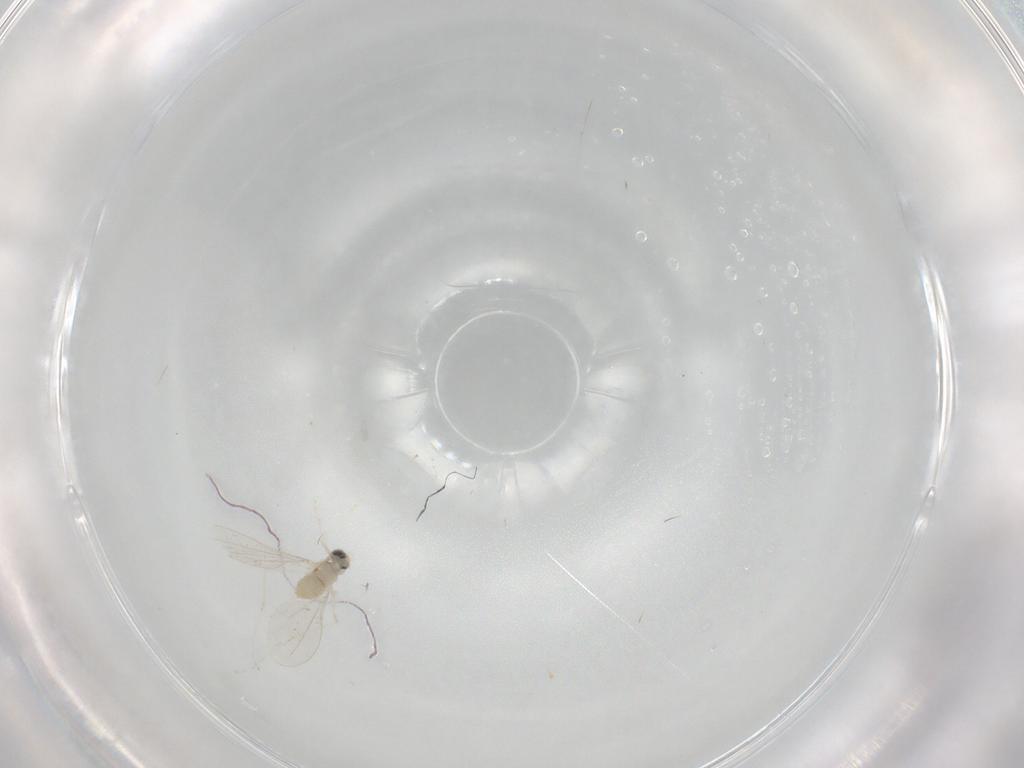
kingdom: Animalia
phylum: Arthropoda
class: Insecta
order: Diptera
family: Cecidomyiidae
